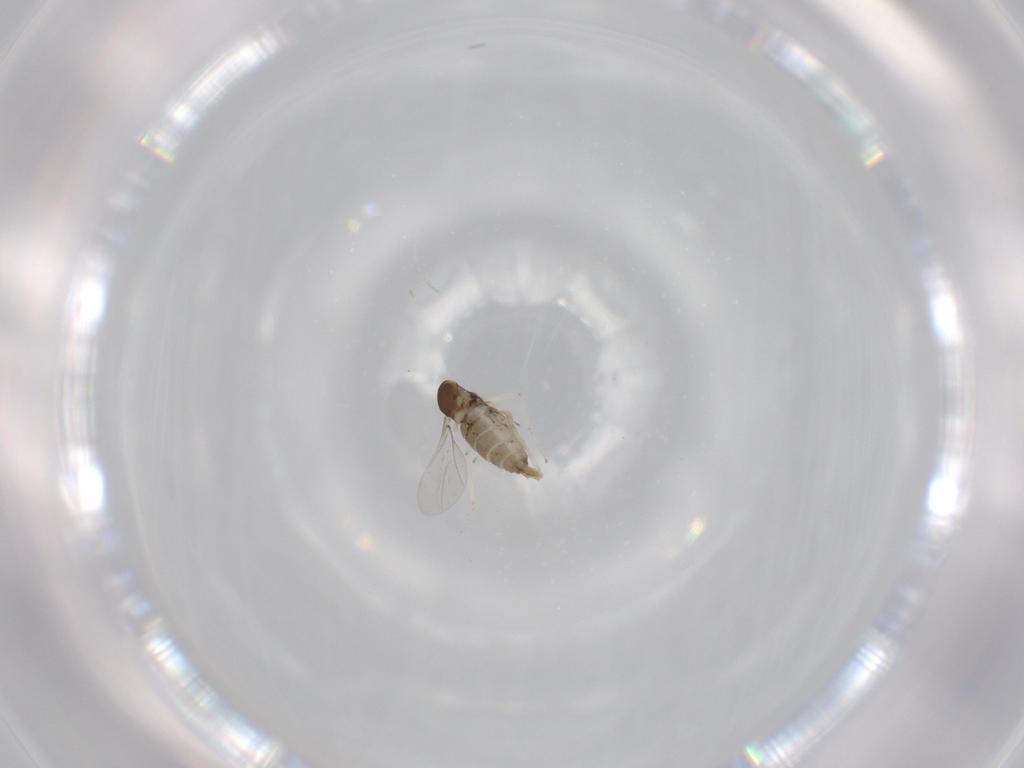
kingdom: Animalia
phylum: Arthropoda
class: Insecta
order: Diptera
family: Cecidomyiidae
